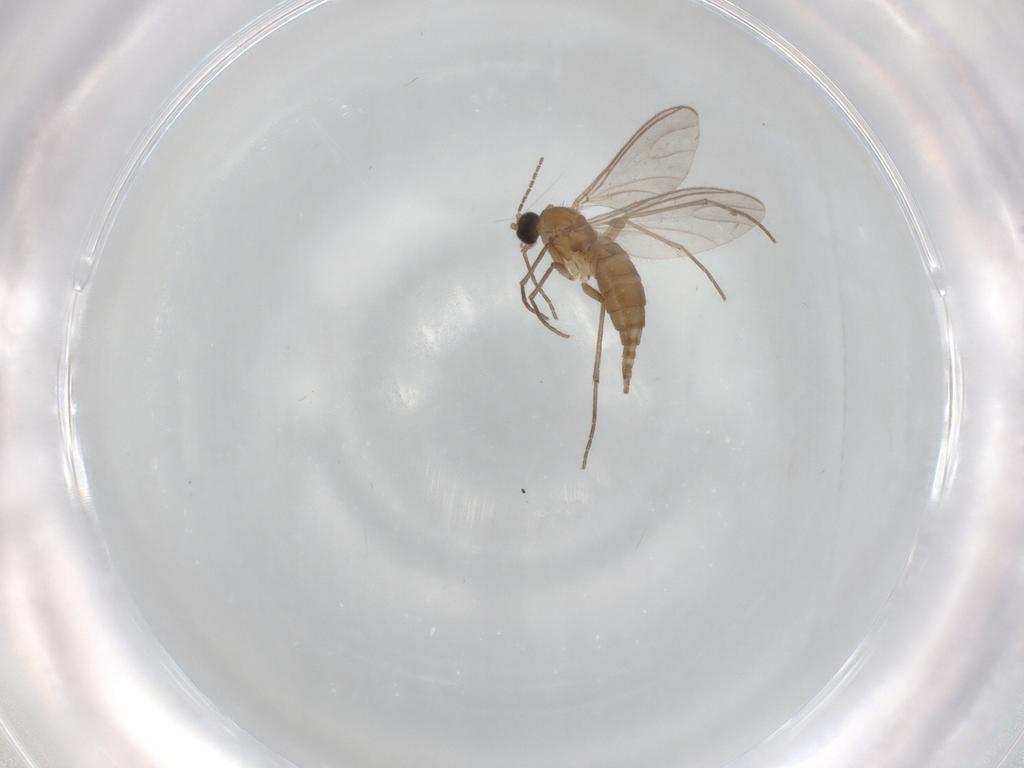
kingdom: Animalia
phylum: Arthropoda
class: Insecta
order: Diptera
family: Sciaridae
